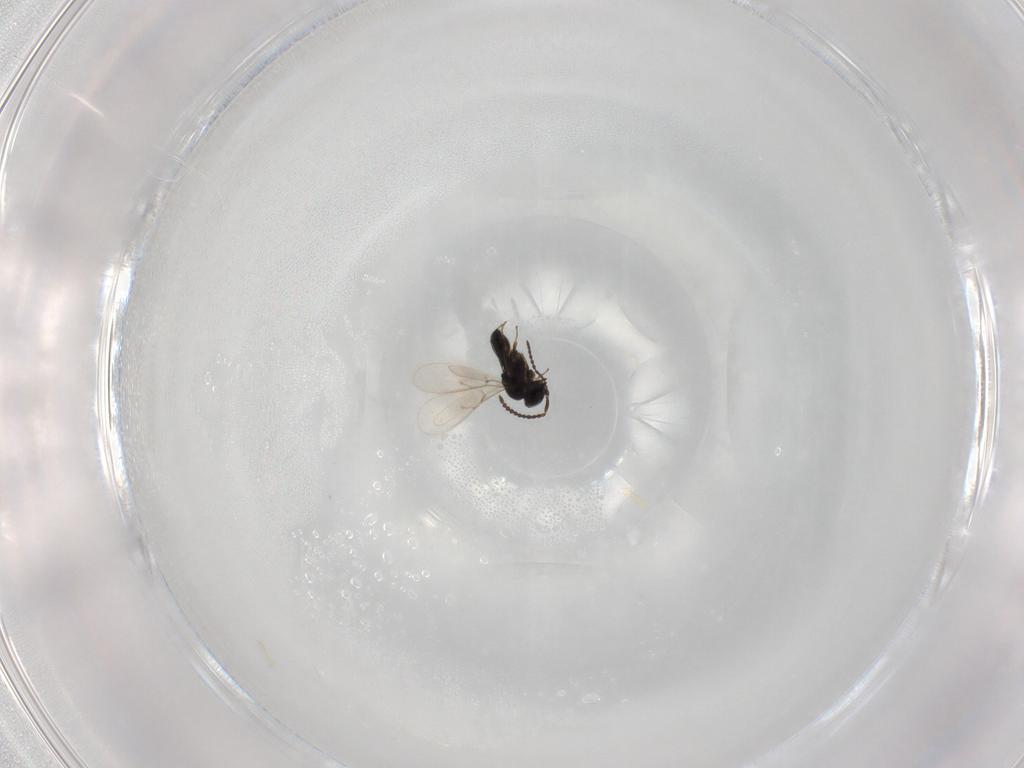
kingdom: Animalia
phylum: Arthropoda
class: Insecta
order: Hymenoptera
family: Scelionidae
